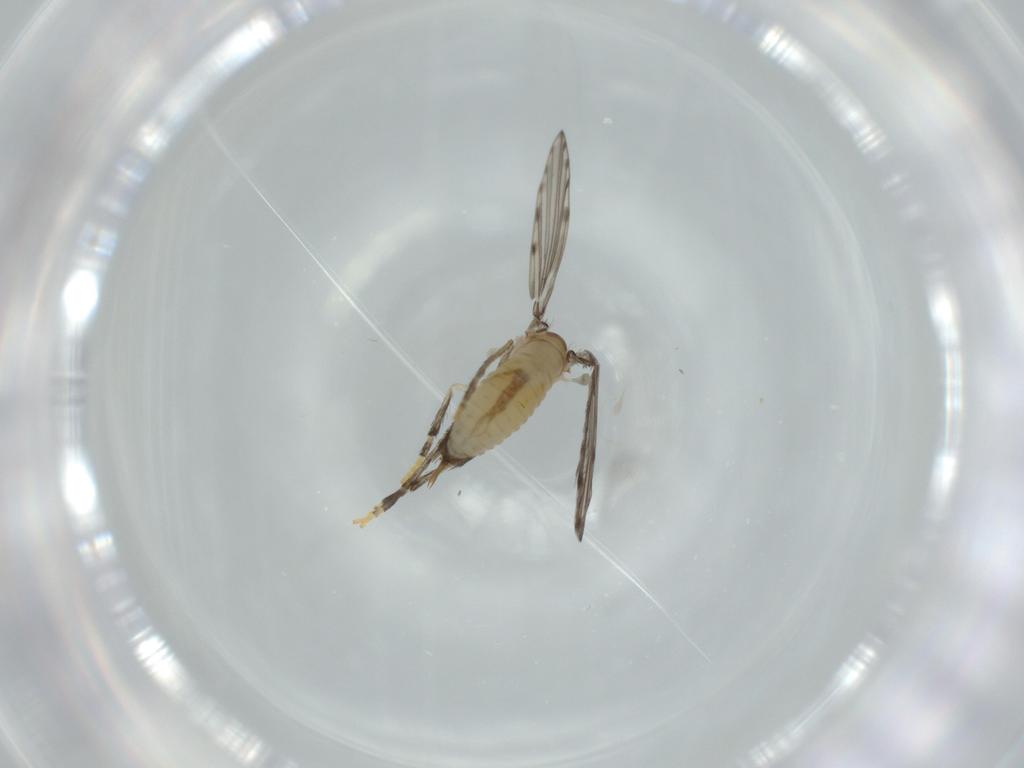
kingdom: Animalia
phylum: Arthropoda
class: Insecta
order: Diptera
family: Psychodidae
